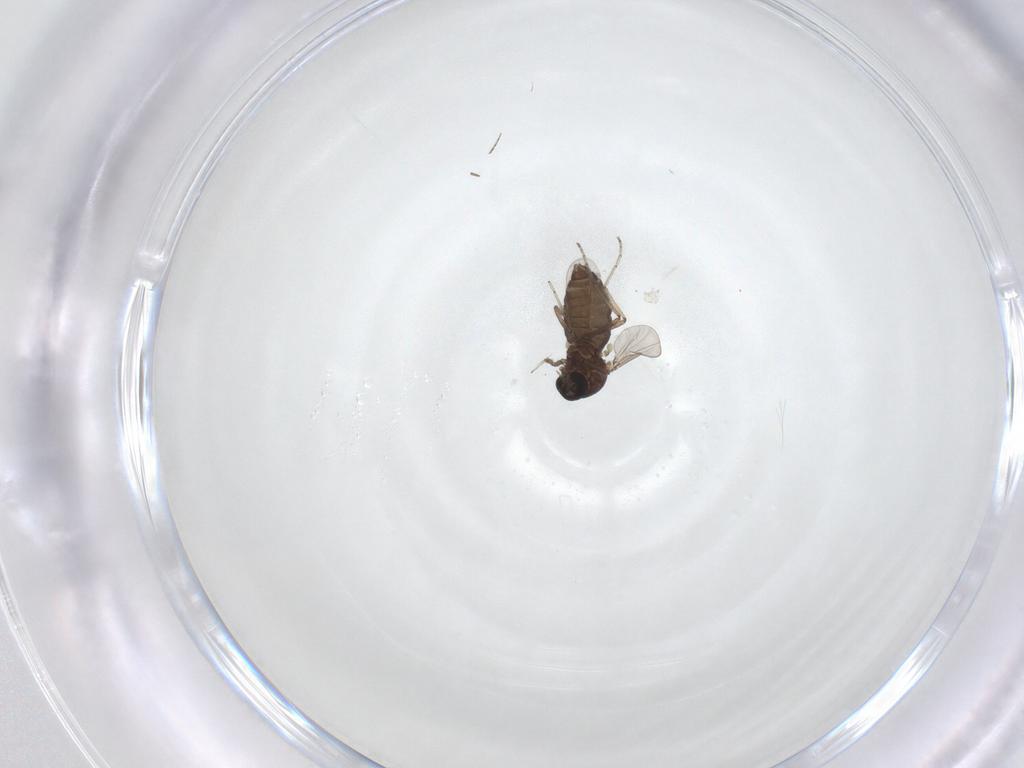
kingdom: Animalia
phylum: Arthropoda
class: Insecta
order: Diptera
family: Ceratopogonidae
